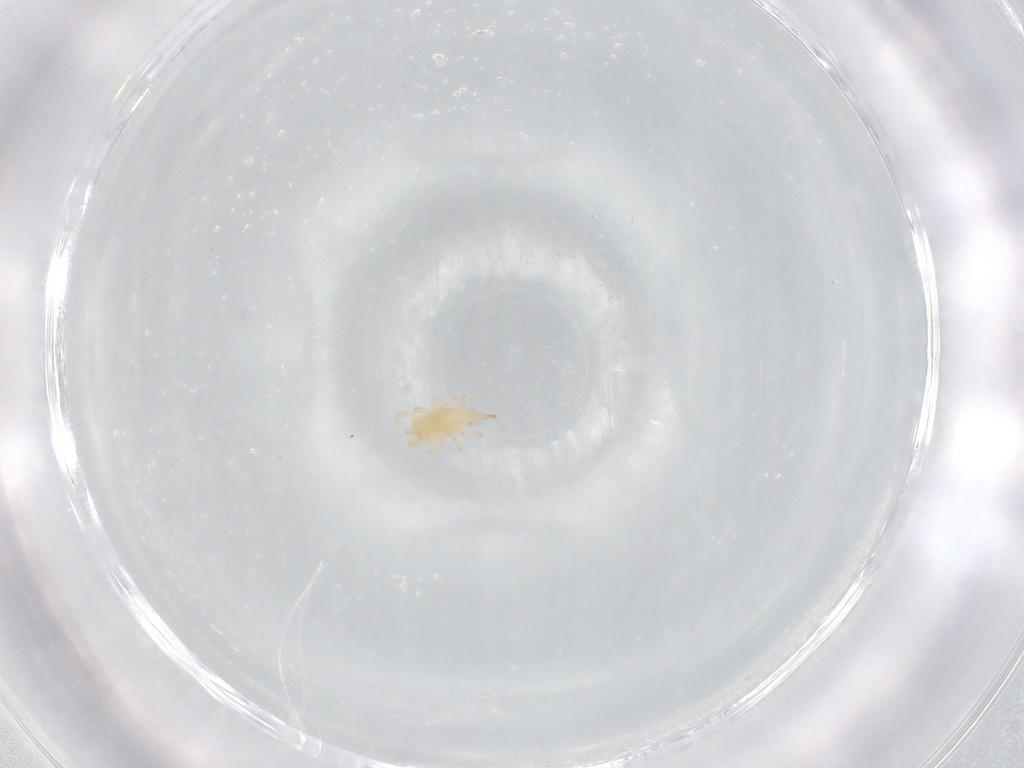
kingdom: Animalia
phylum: Arthropoda
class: Arachnida
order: Trombidiformes
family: Bdellidae
